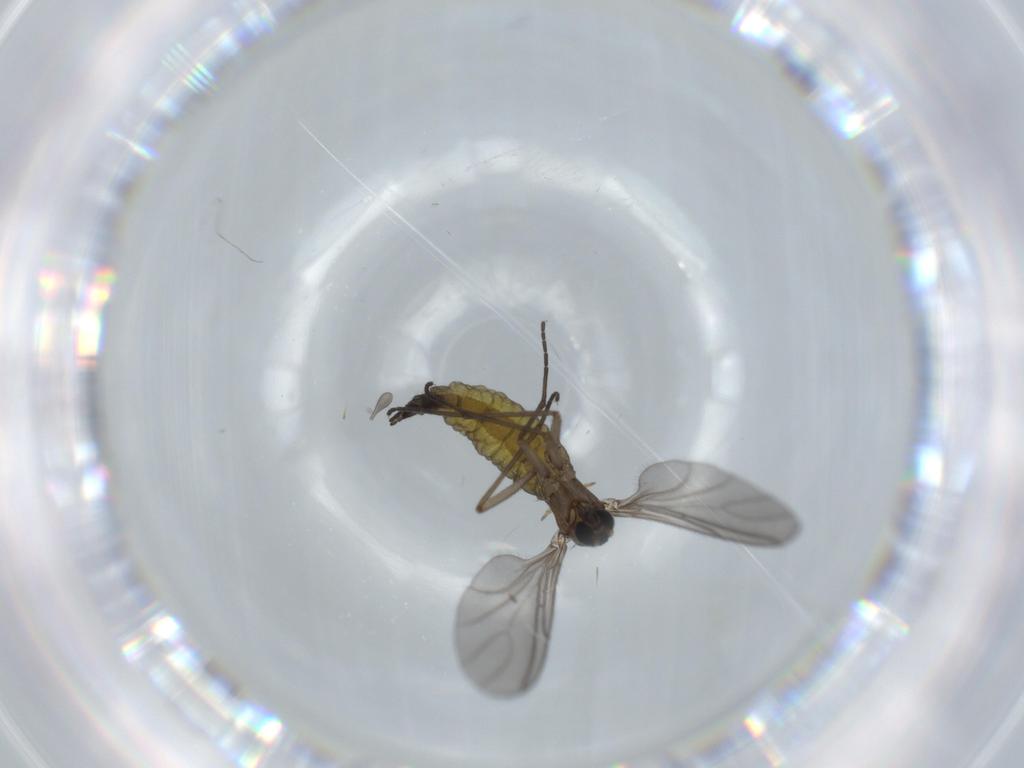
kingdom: Animalia
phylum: Arthropoda
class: Insecta
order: Diptera
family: Sciaridae
